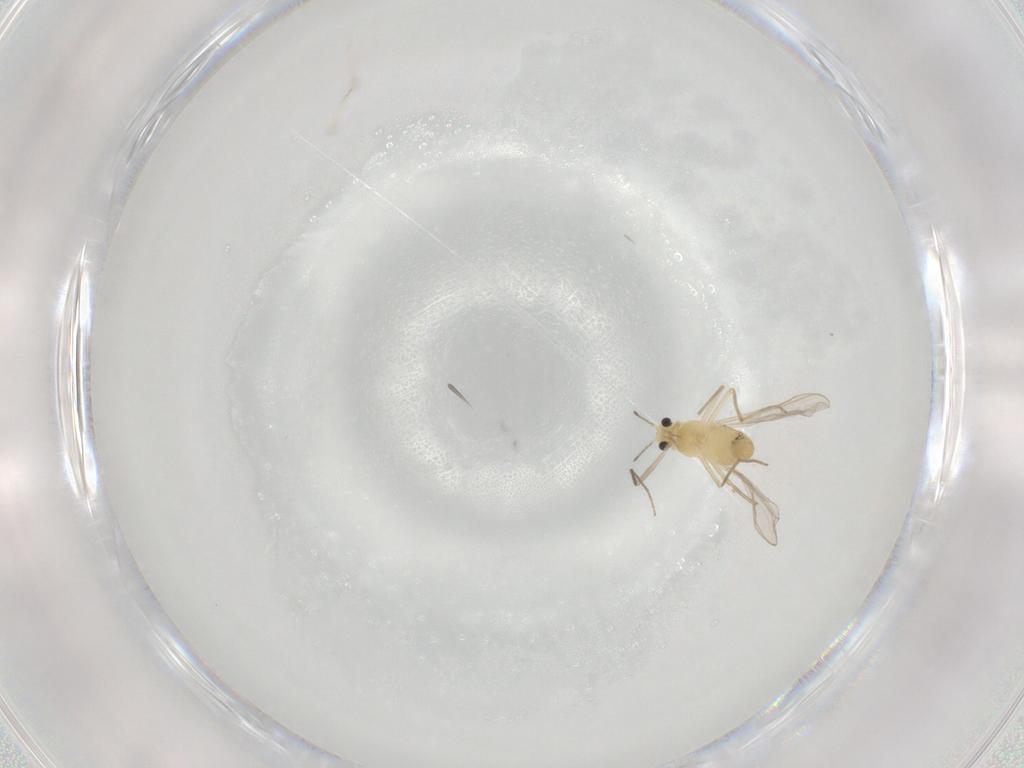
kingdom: Animalia
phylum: Arthropoda
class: Insecta
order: Diptera
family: Chironomidae
